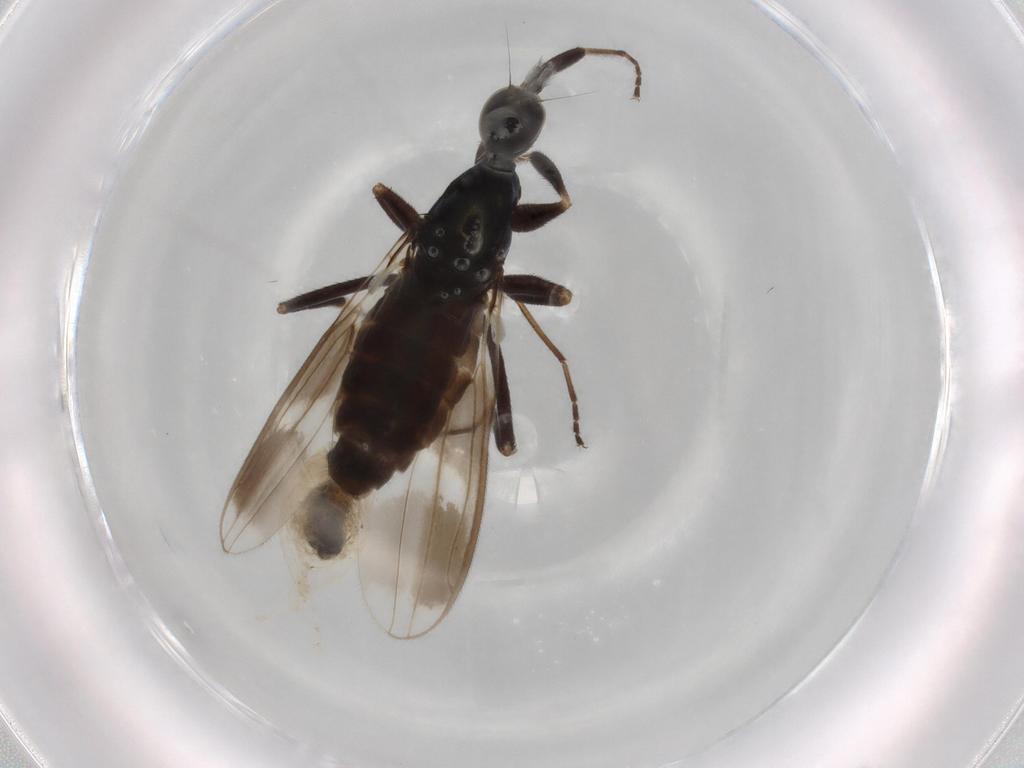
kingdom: Animalia
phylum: Arthropoda
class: Insecta
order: Diptera
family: Hybotidae
